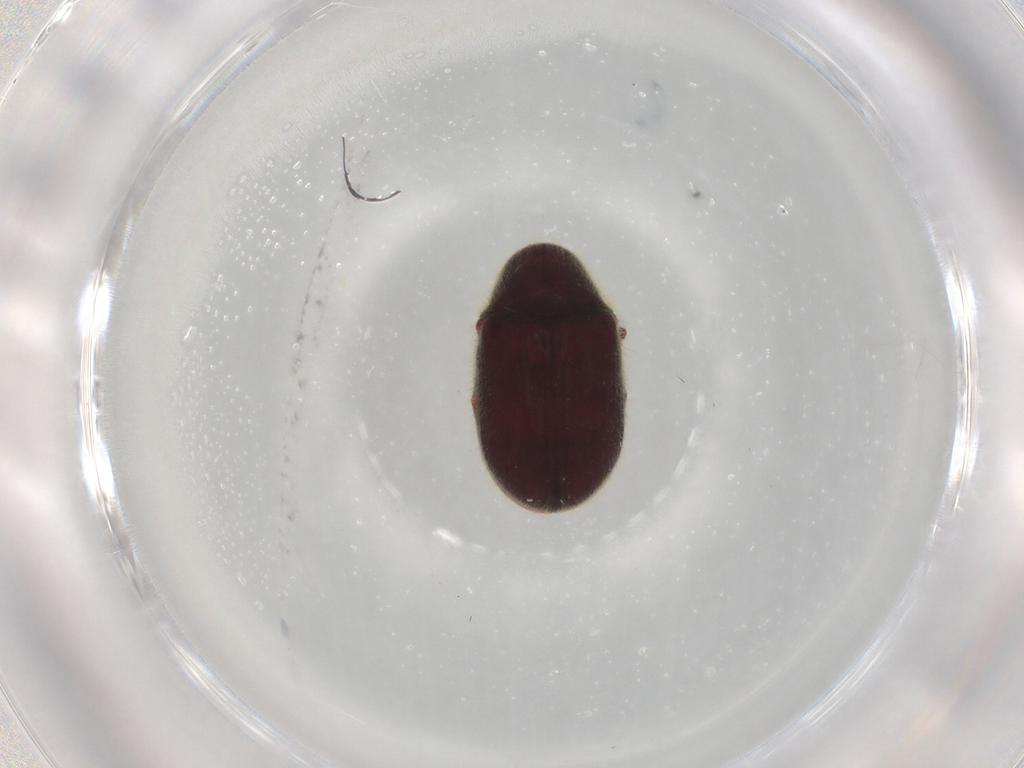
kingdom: Animalia
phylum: Arthropoda
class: Insecta
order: Coleoptera
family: Ptinidae
